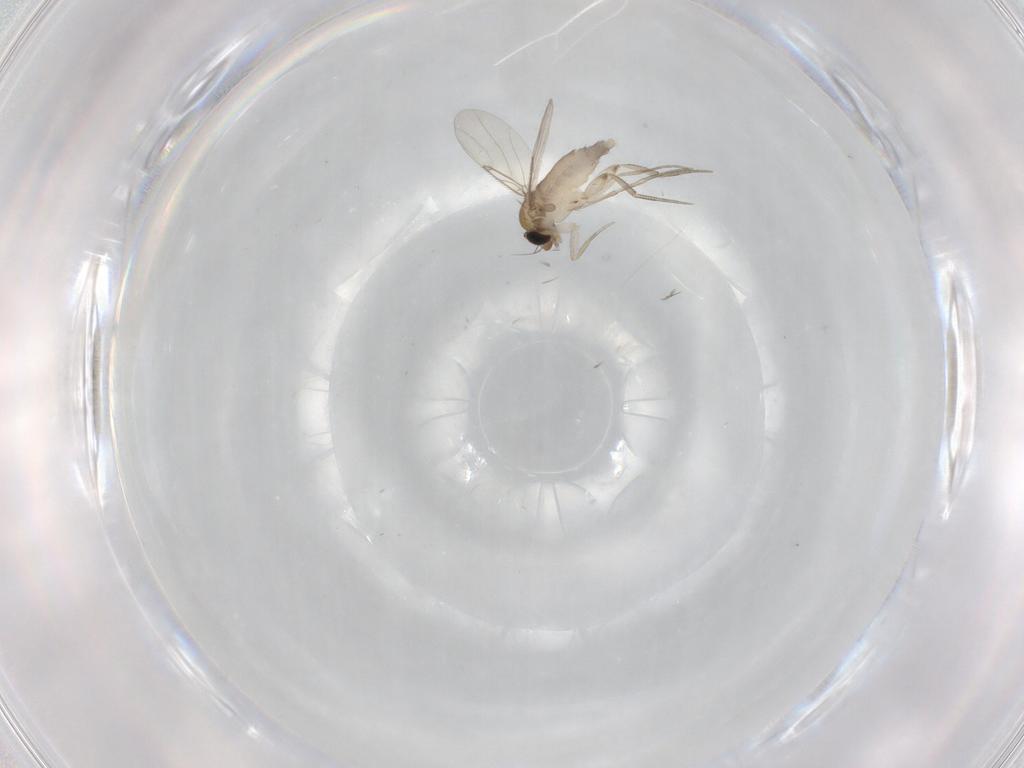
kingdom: Animalia
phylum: Arthropoda
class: Insecta
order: Diptera
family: Phoridae
